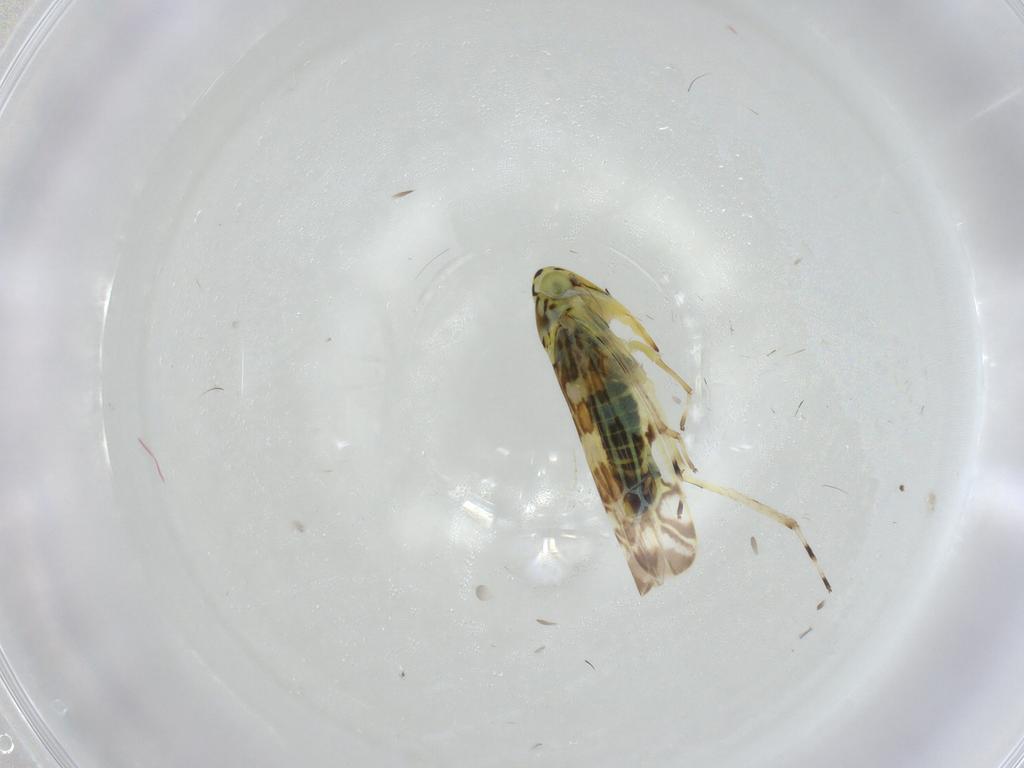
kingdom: Animalia
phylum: Arthropoda
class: Insecta
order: Hemiptera
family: Cicadellidae
